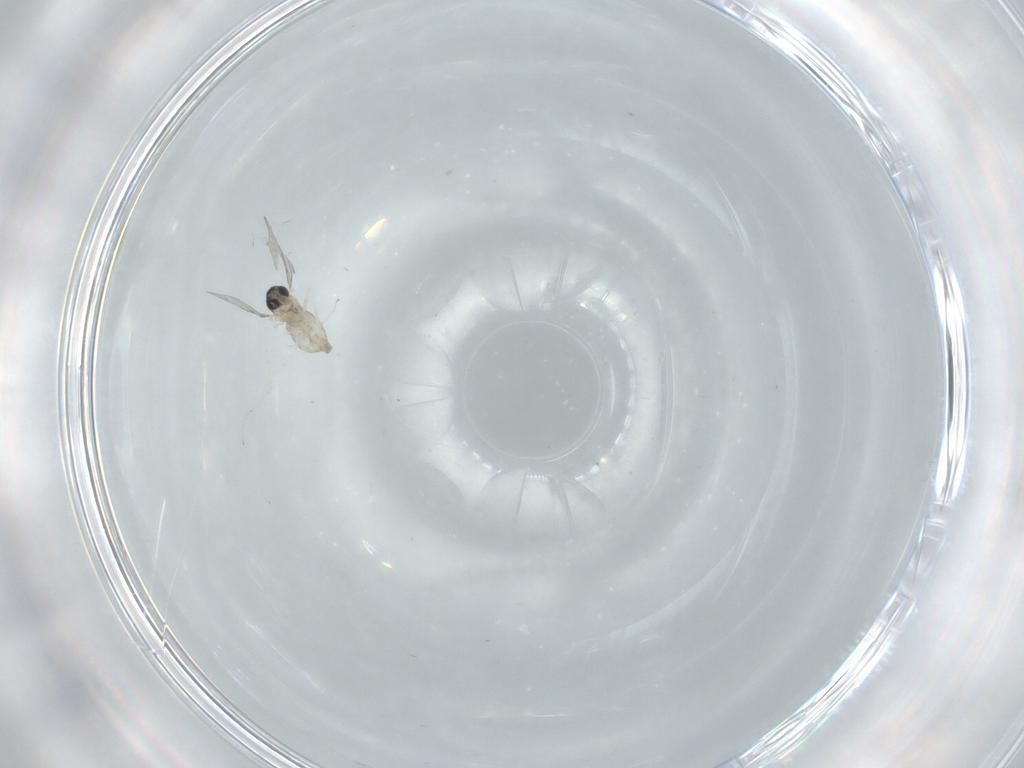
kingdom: Animalia
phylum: Arthropoda
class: Insecta
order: Diptera
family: Cecidomyiidae
